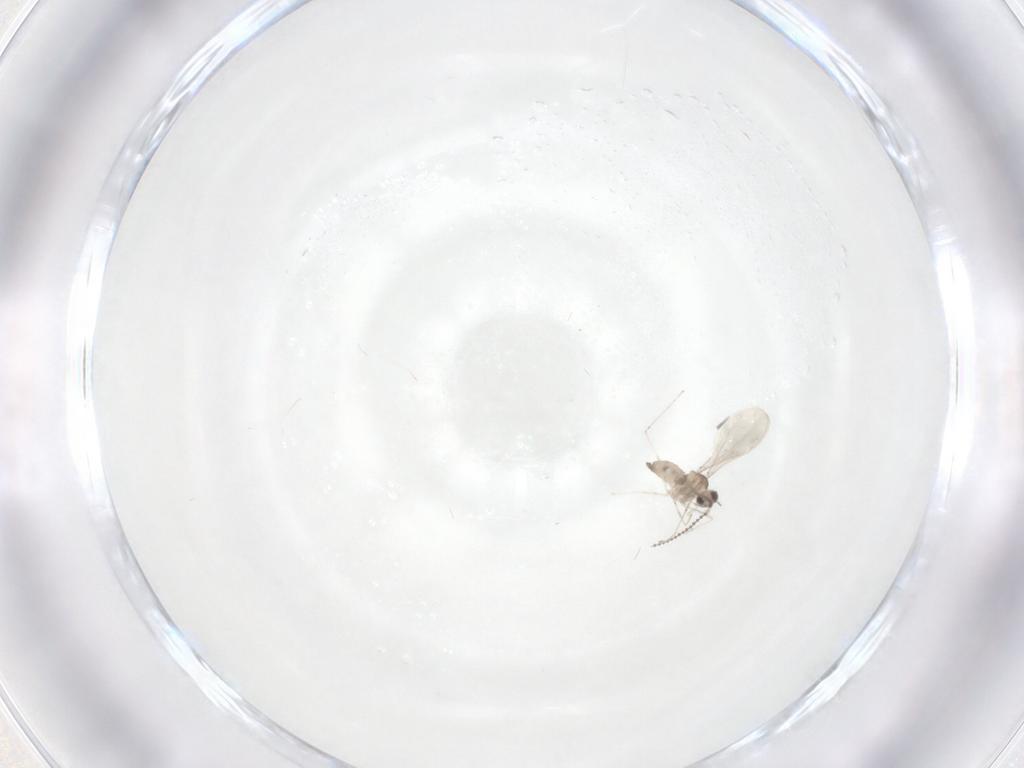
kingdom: Animalia
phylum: Arthropoda
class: Insecta
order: Diptera
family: Cecidomyiidae
